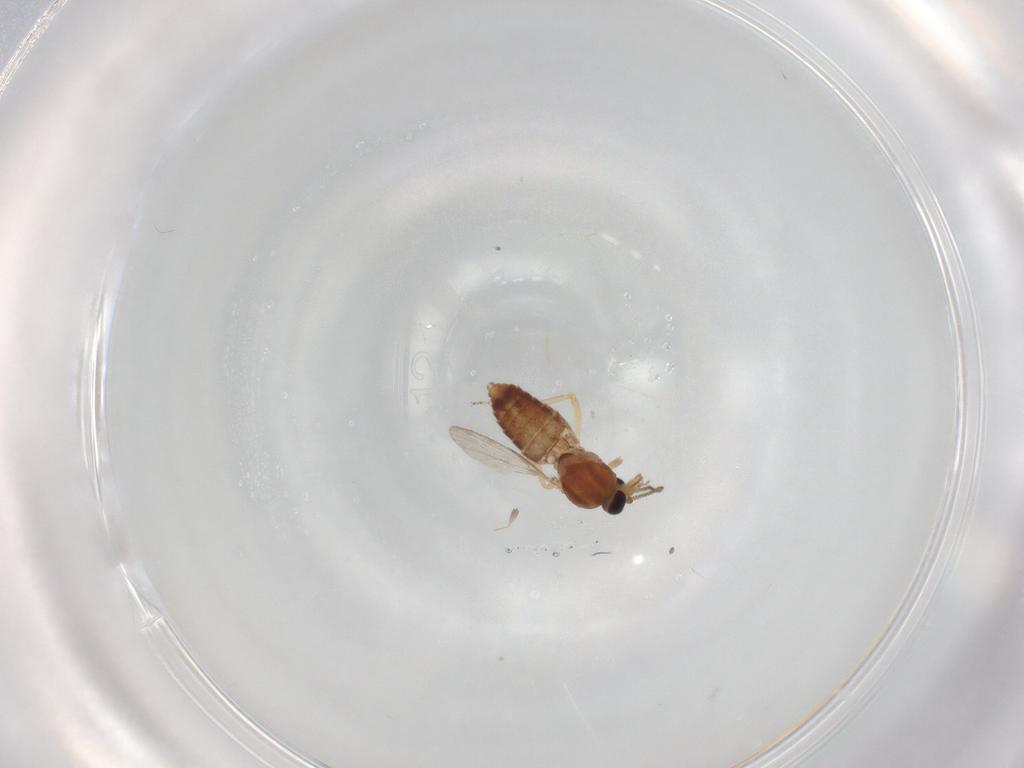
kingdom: Animalia
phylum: Arthropoda
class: Insecta
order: Diptera
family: Ceratopogonidae
